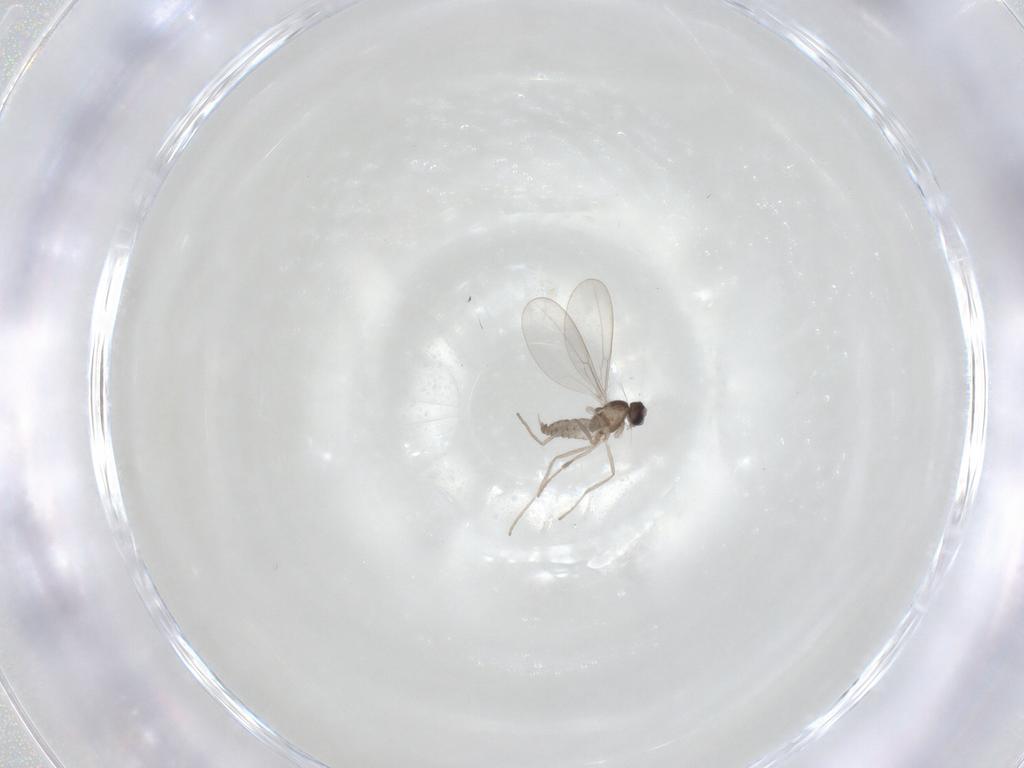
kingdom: Animalia
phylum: Arthropoda
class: Insecta
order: Diptera
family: Cecidomyiidae
